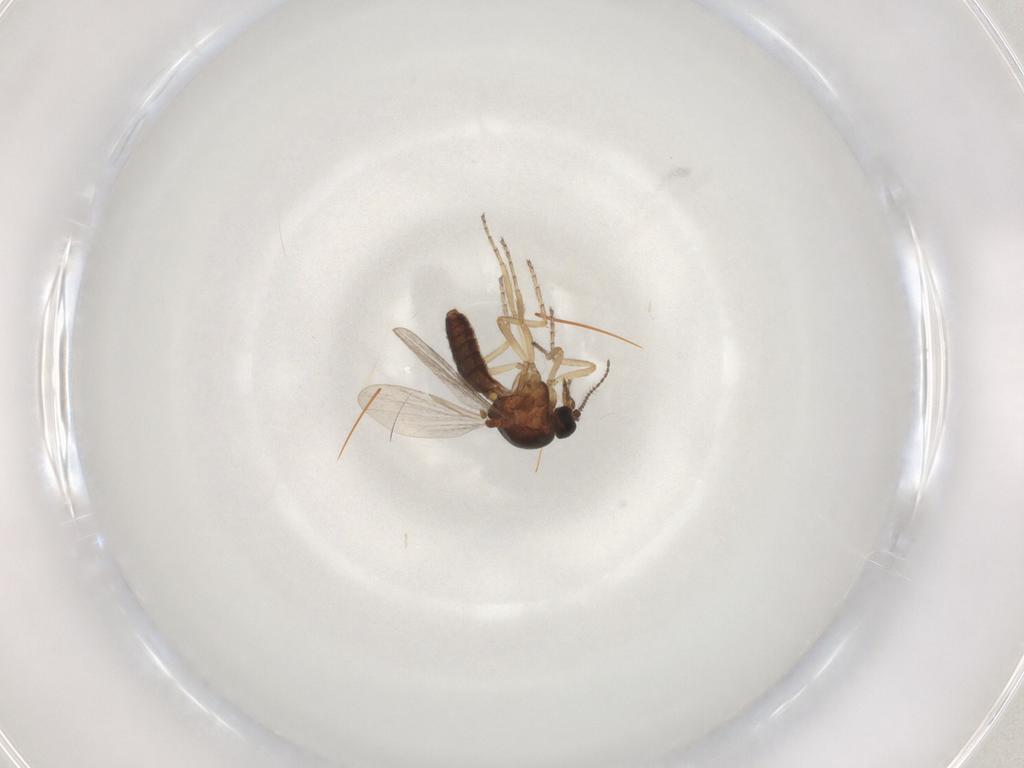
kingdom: Animalia
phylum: Arthropoda
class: Insecta
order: Diptera
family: Ceratopogonidae
